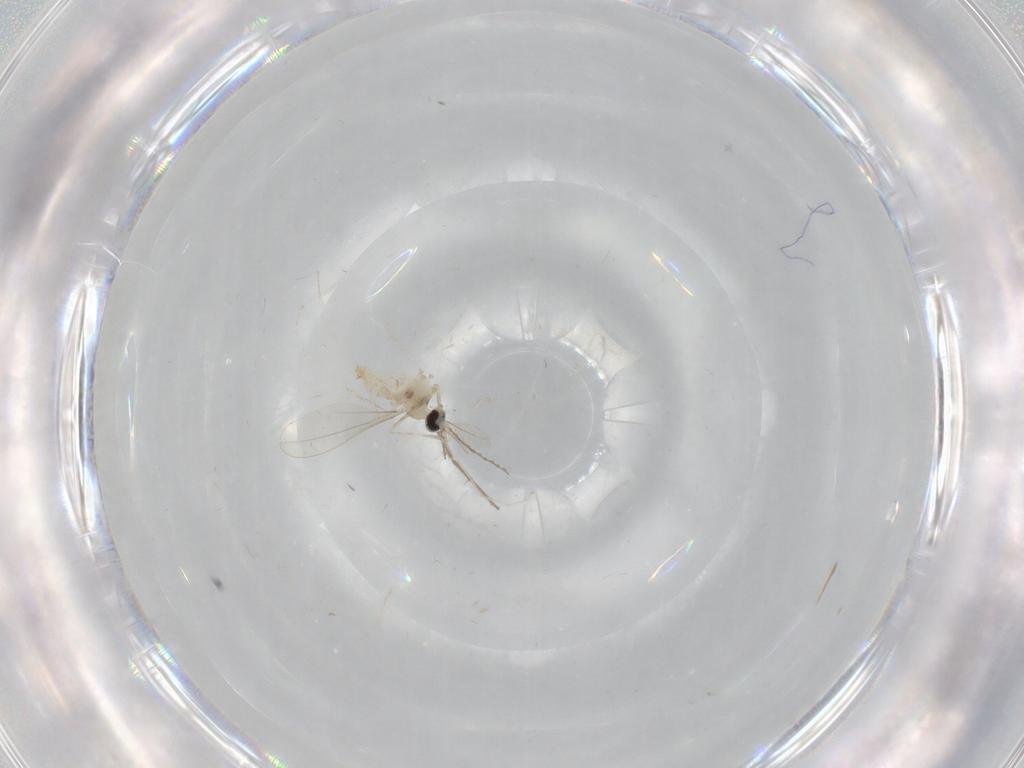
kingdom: Animalia
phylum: Arthropoda
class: Insecta
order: Diptera
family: Cecidomyiidae
